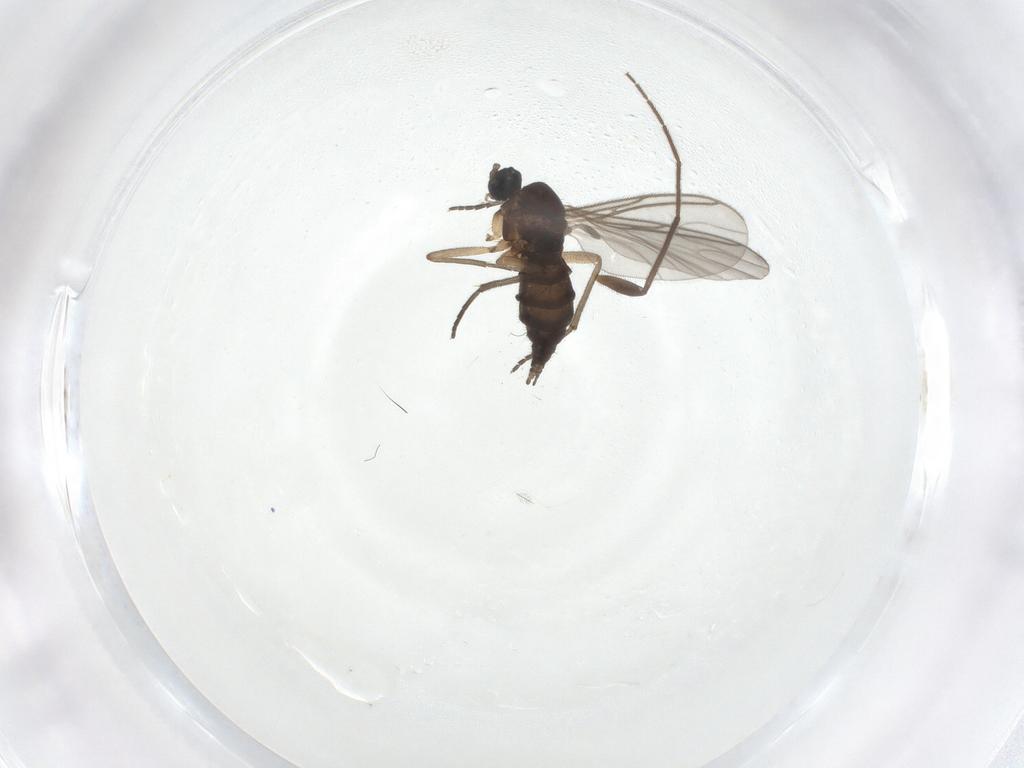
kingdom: Animalia
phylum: Arthropoda
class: Insecta
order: Diptera
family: Sciaridae
